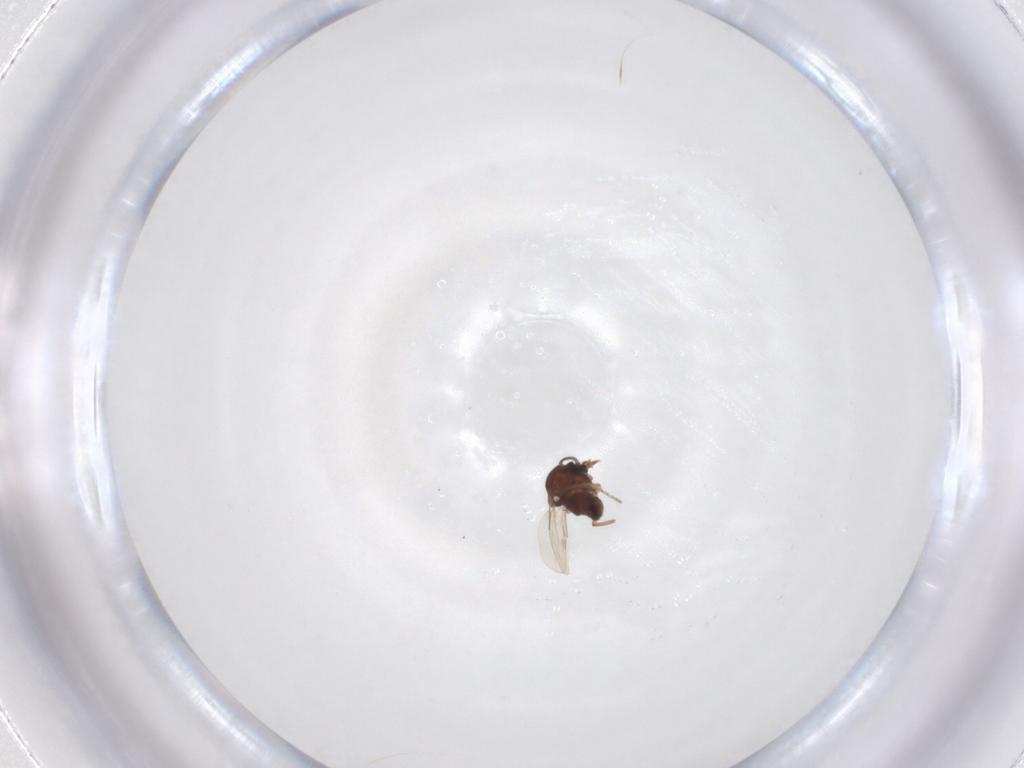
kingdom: Animalia
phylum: Arthropoda
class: Insecta
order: Diptera
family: Ceratopogonidae
